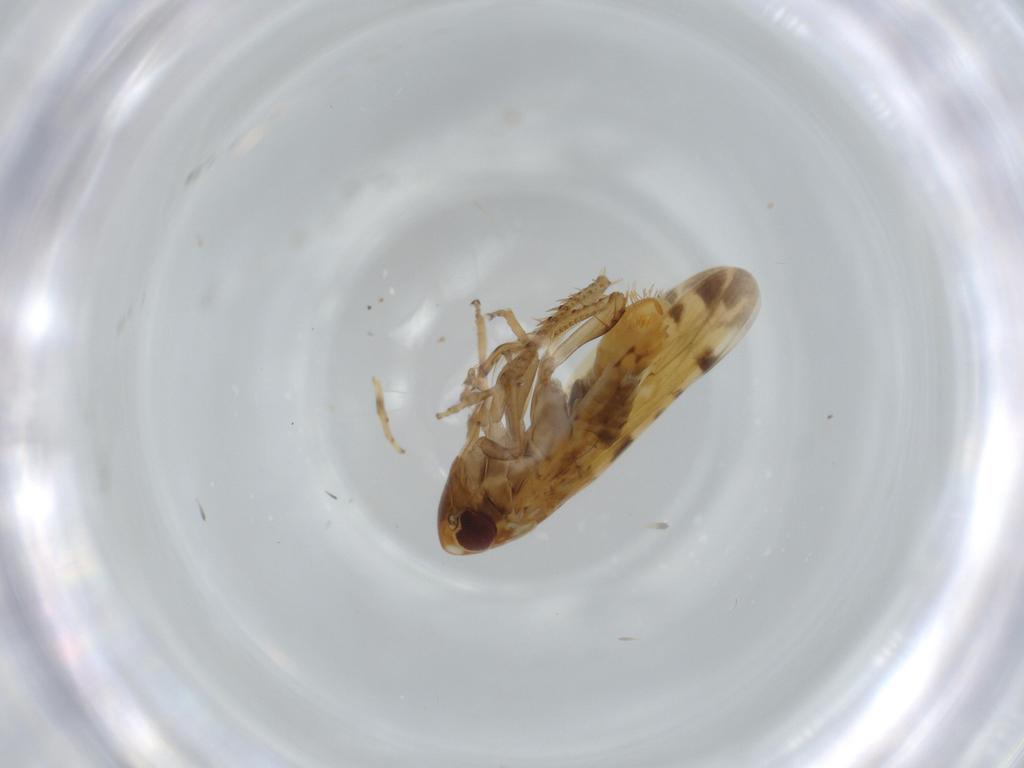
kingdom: Animalia
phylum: Arthropoda
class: Insecta
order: Hemiptera
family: Cicadellidae
